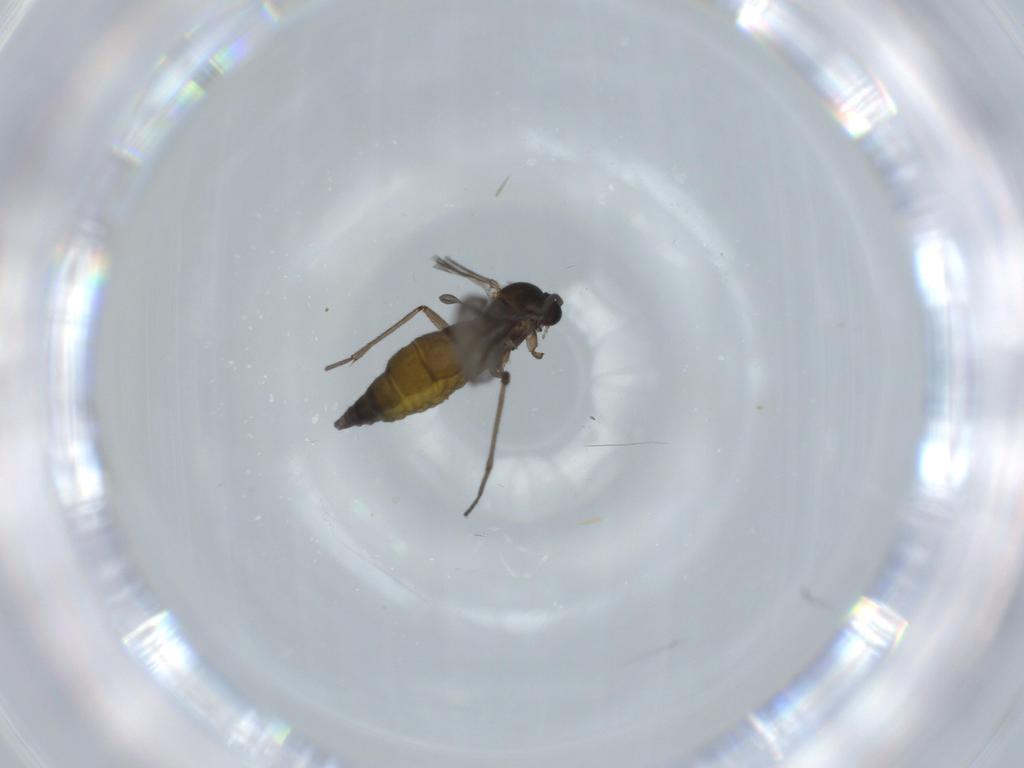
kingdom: Animalia
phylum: Arthropoda
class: Insecta
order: Diptera
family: Sciaridae
